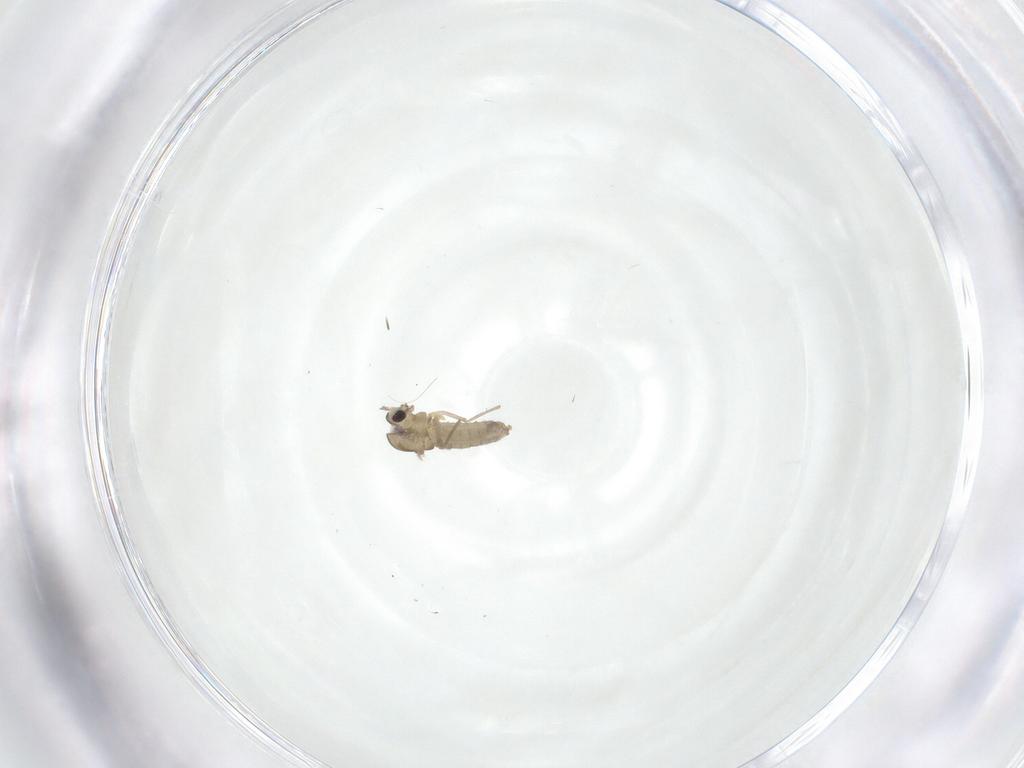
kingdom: Animalia
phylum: Arthropoda
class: Insecta
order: Diptera
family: Chironomidae
